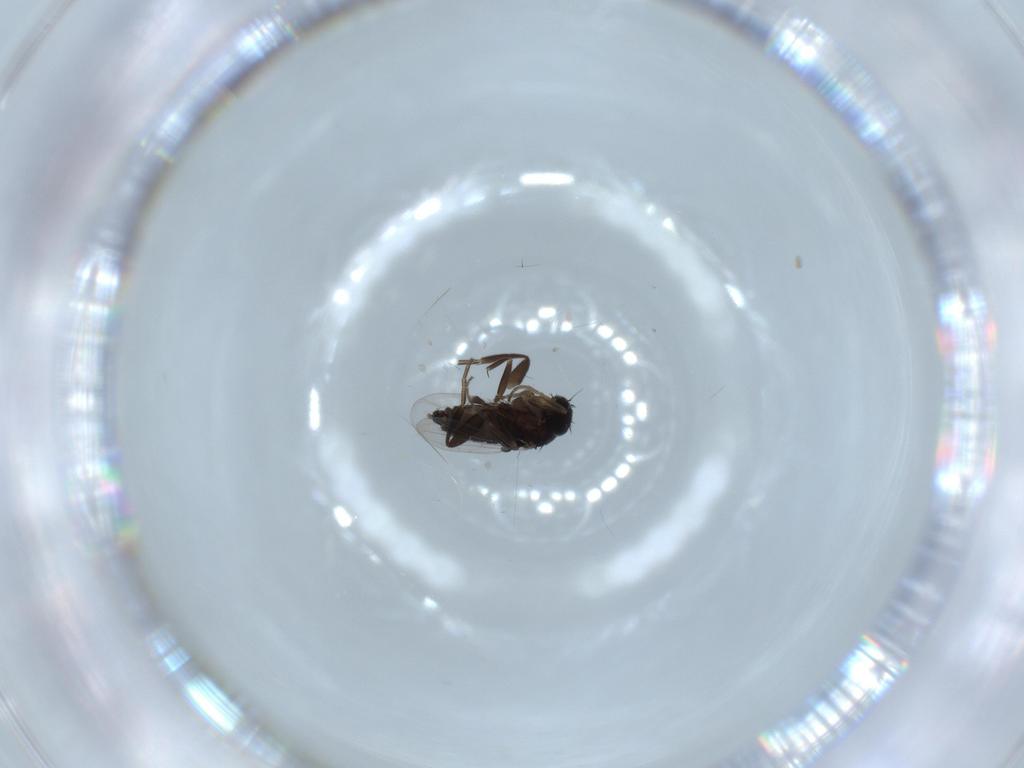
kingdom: Animalia
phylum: Arthropoda
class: Insecta
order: Diptera
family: Phoridae
